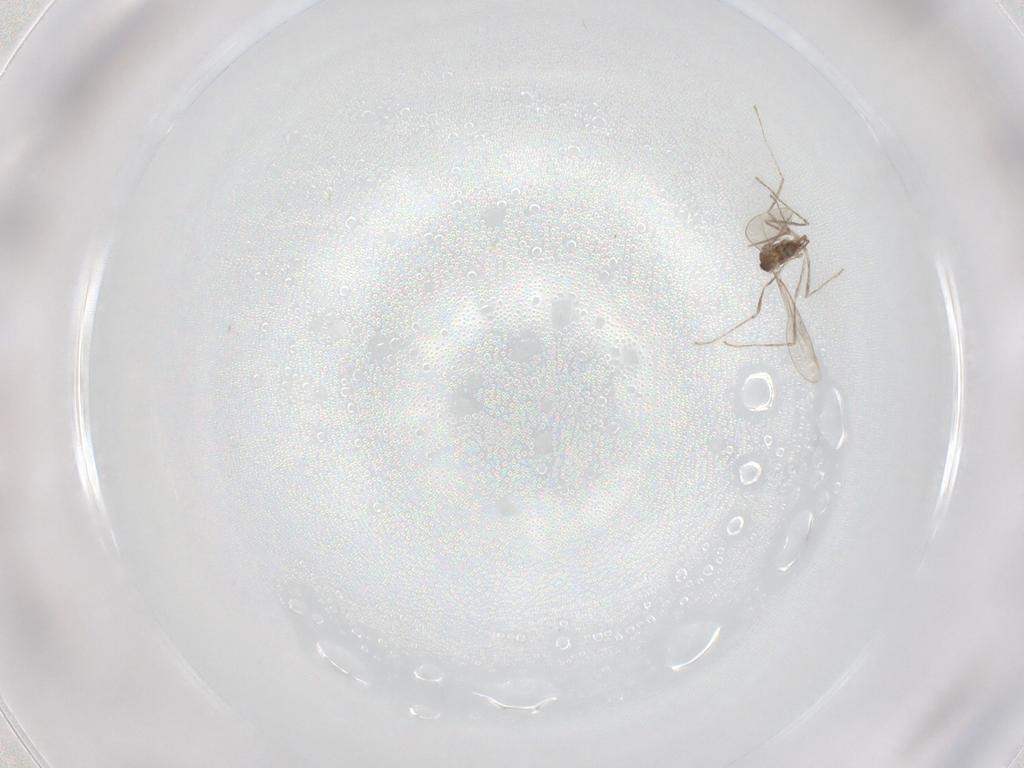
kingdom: Animalia
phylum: Arthropoda
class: Insecta
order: Diptera
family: Cecidomyiidae
